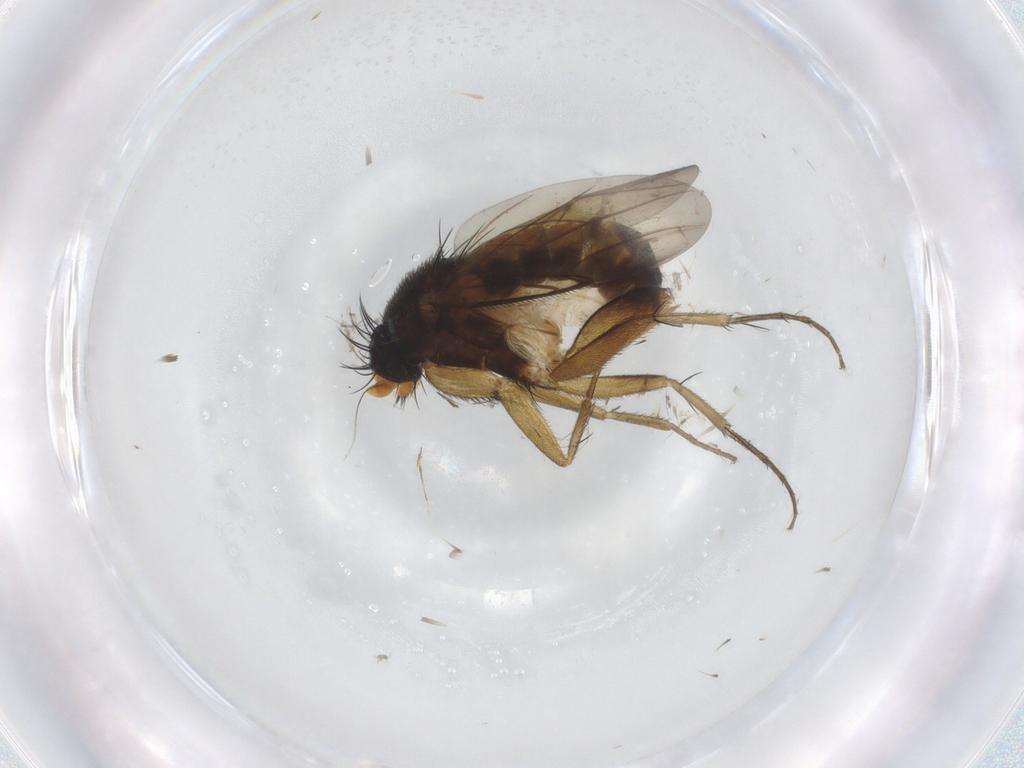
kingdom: Animalia
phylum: Arthropoda
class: Insecta
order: Diptera
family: Phoridae
